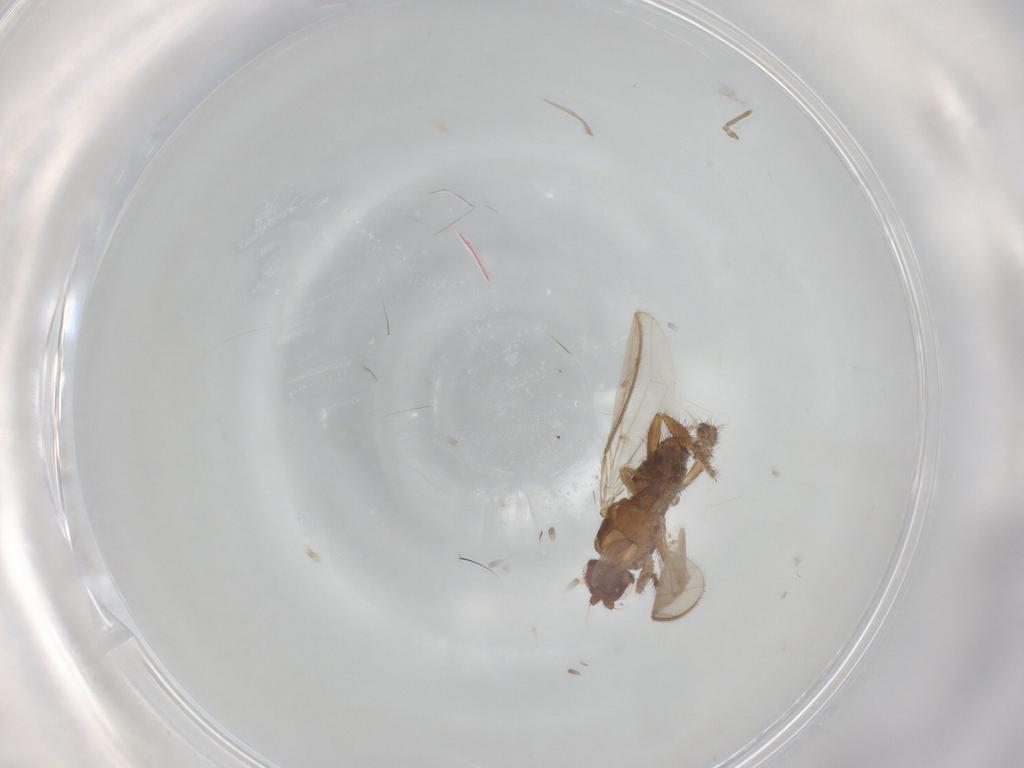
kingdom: Animalia
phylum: Arthropoda
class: Insecta
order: Diptera
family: Sphaeroceridae
